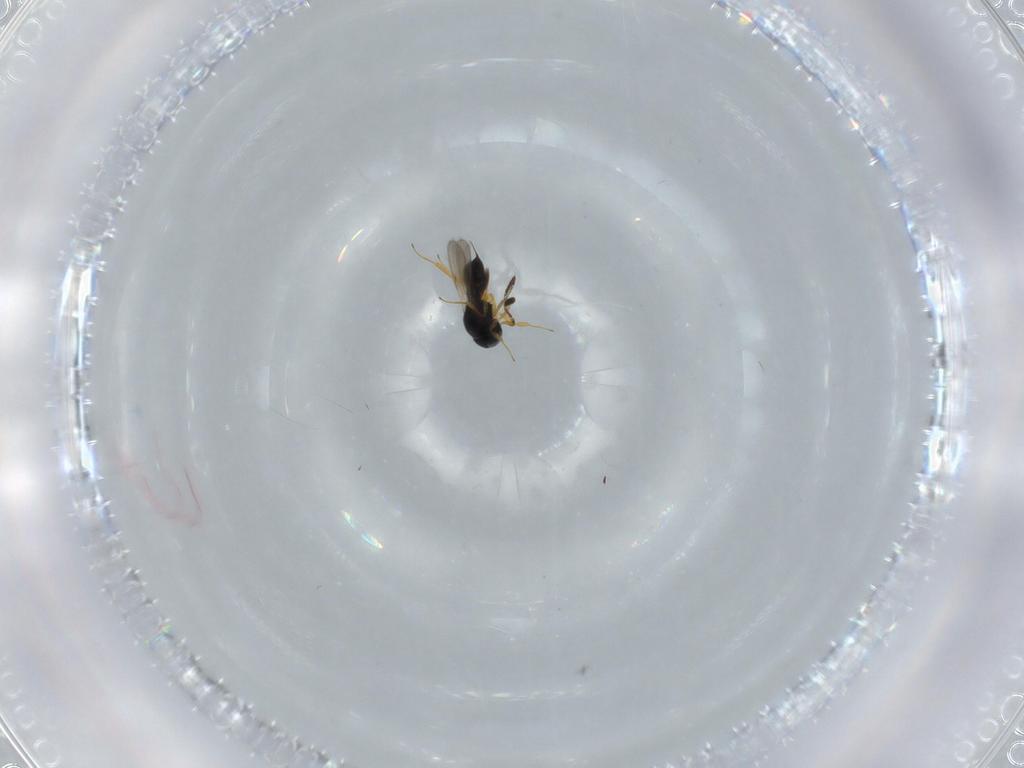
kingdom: Animalia
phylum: Arthropoda
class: Insecta
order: Hymenoptera
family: Scelionidae
